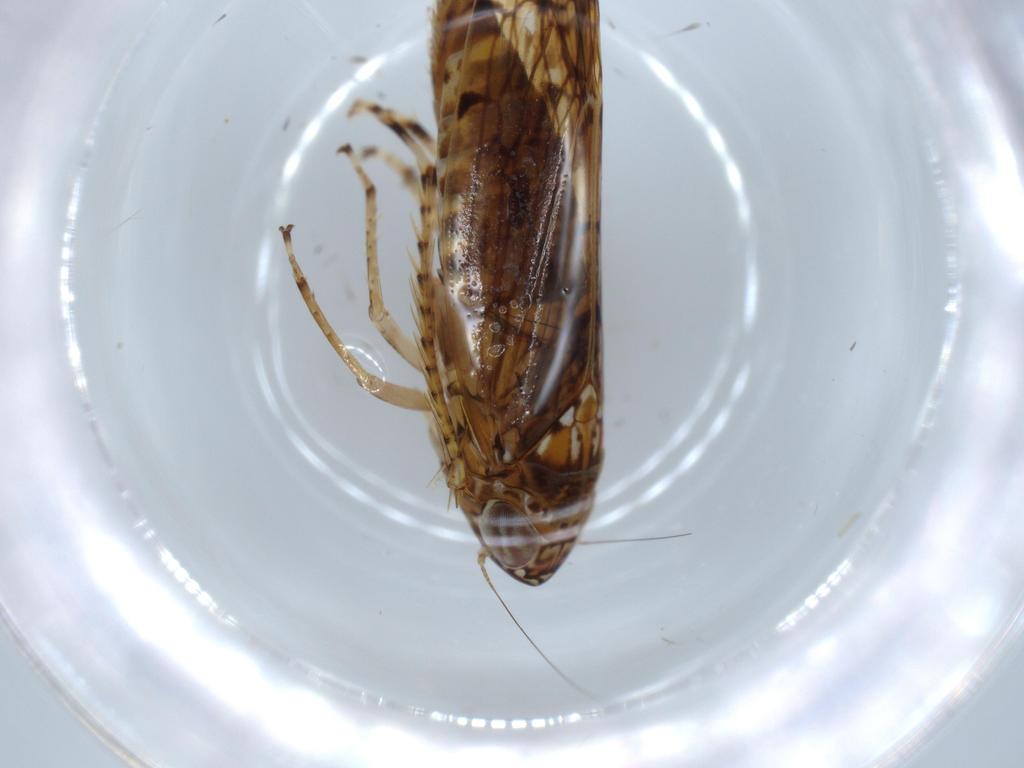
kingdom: Animalia
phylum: Arthropoda
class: Insecta
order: Hemiptera
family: Cicadellidae
